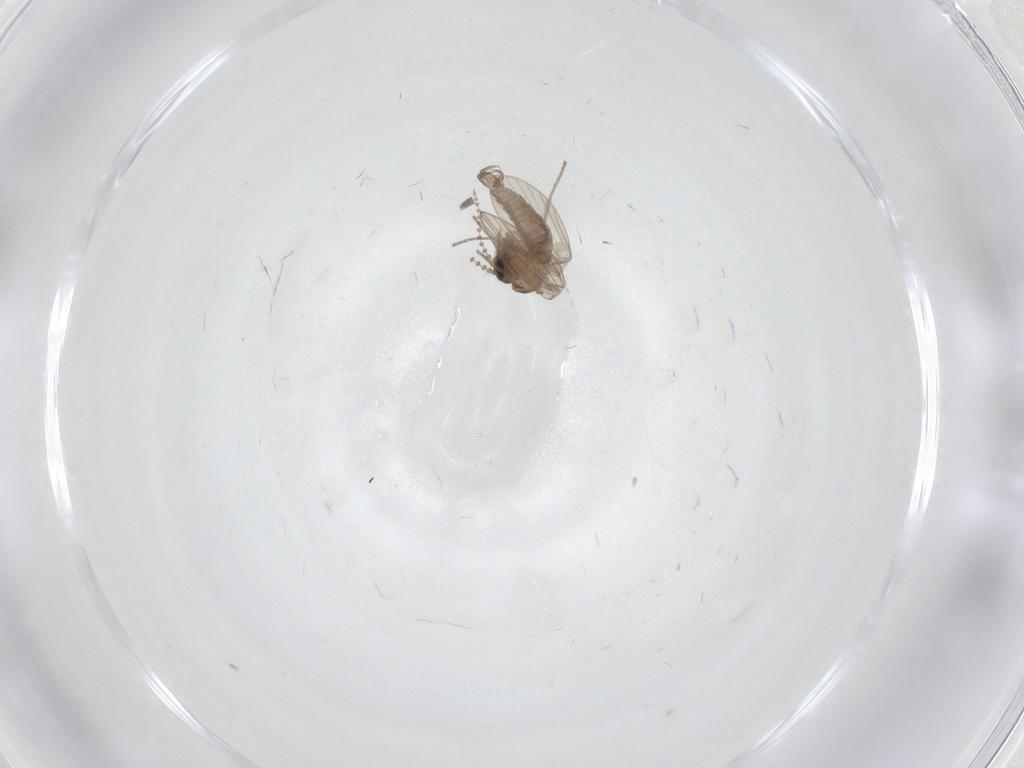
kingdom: Animalia
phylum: Arthropoda
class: Insecta
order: Diptera
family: Psychodidae
